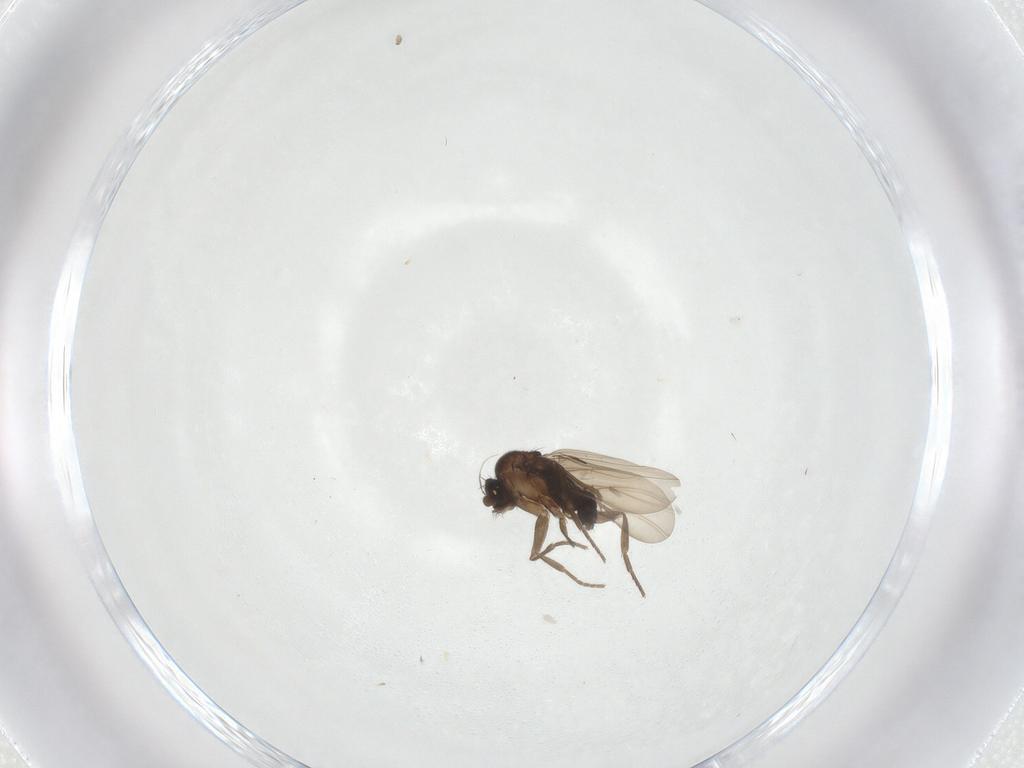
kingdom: Animalia
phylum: Arthropoda
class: Insecta
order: Diptera
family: Phoridae
